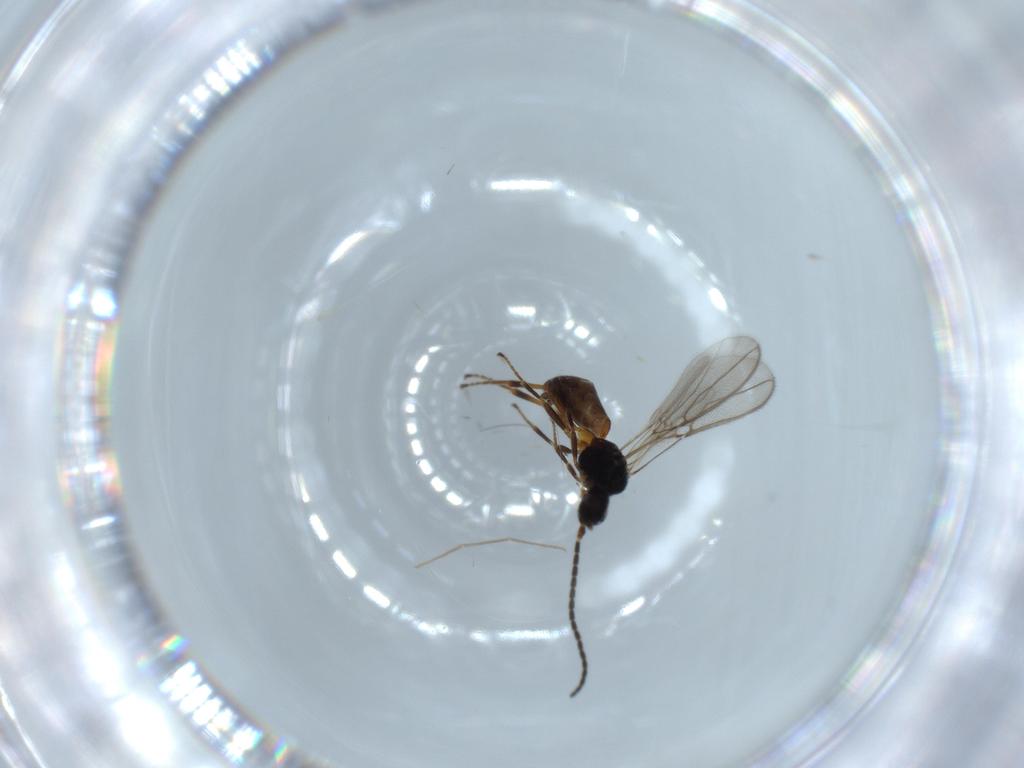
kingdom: Animalia
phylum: Arthropoda
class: Insecta
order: Hymenoptera
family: Braconidae
